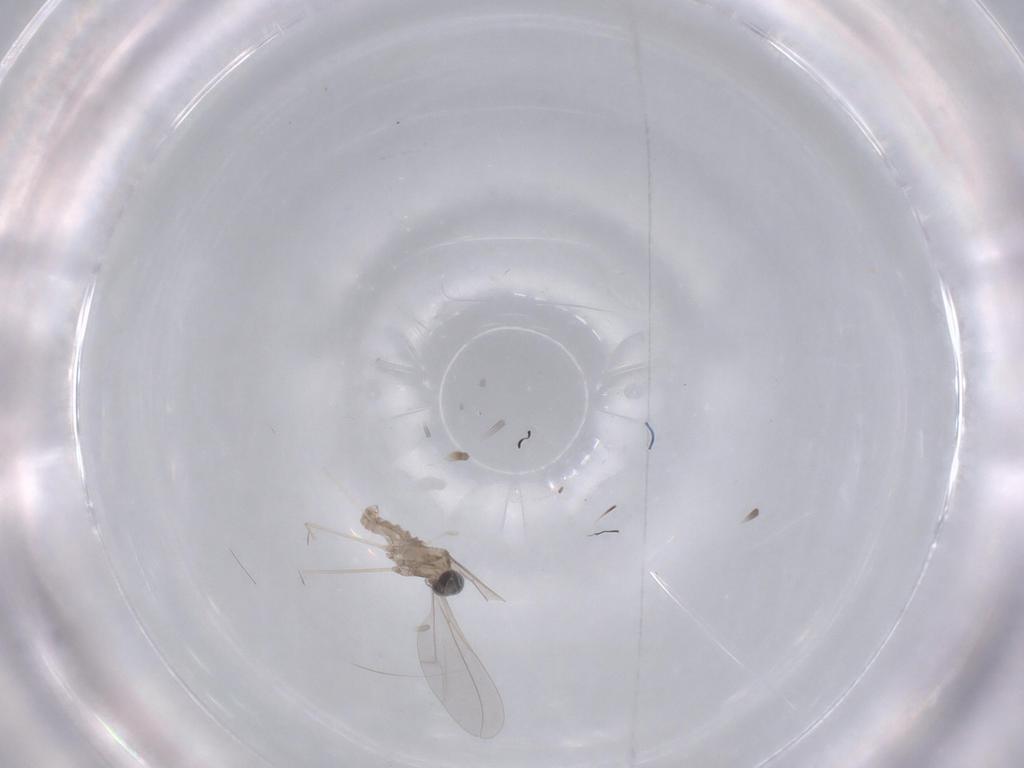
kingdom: Animalia
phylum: Arthropoda
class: Insecta
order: Diptera
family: Cecidomyiidae
